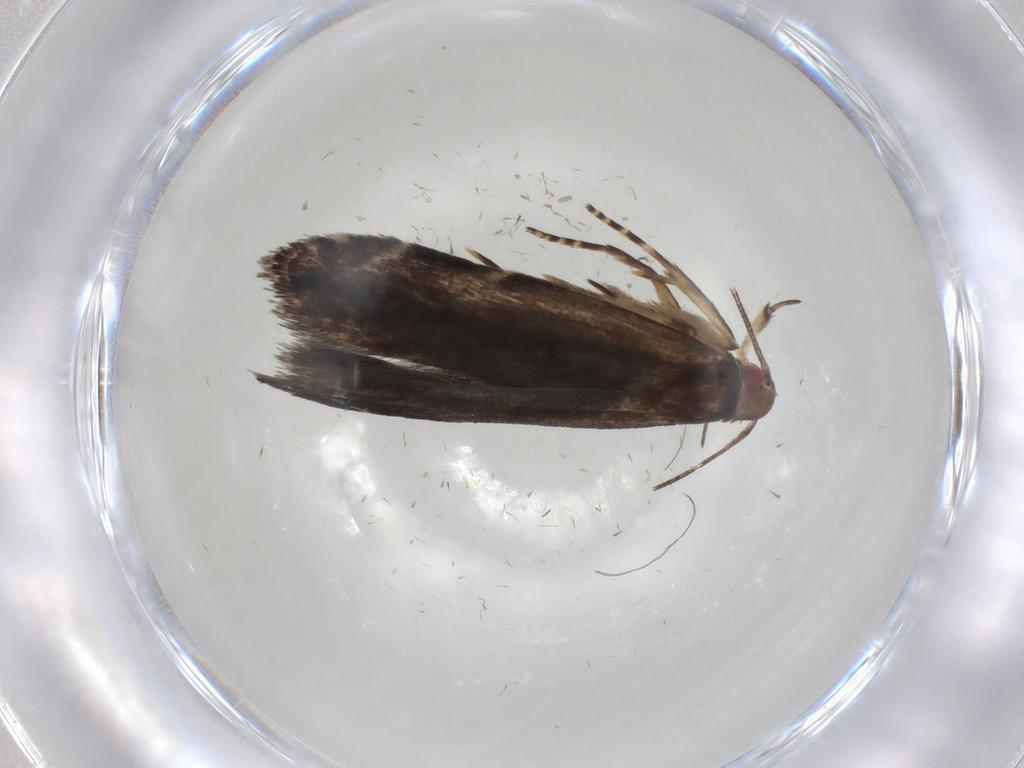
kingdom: Animalia
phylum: Arthropoda
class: Insecta
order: Lepidoptera
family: Gelechiidae
